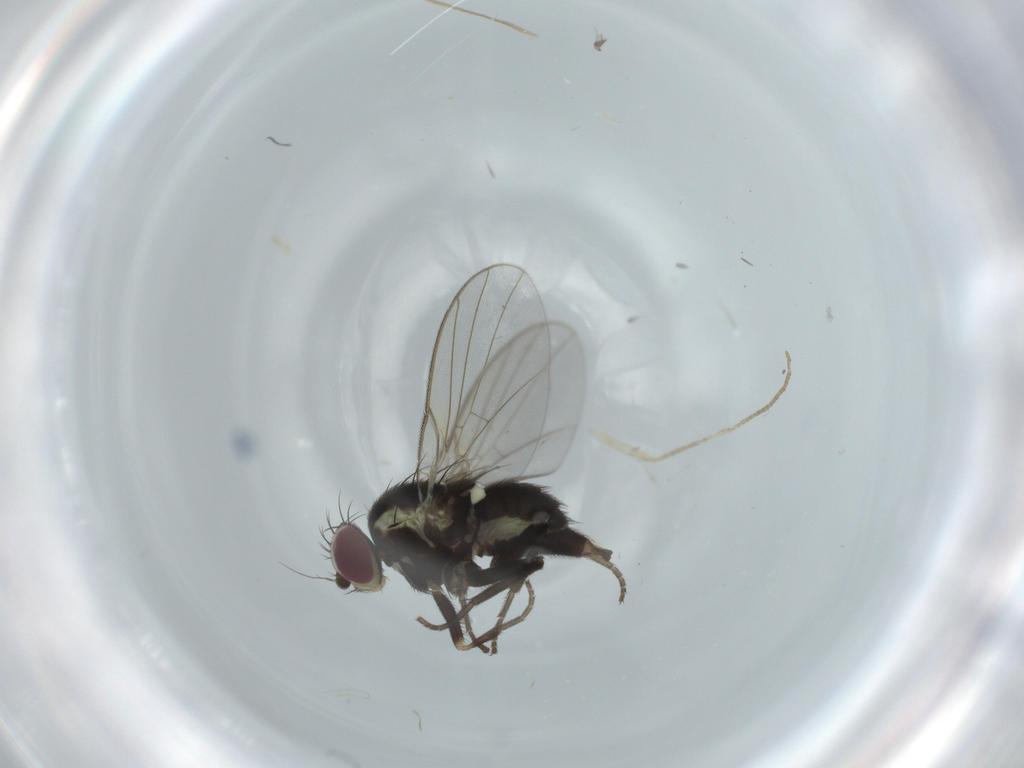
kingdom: Animalia
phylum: Arthropoda
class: Insecta
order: Diptera
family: Agromyzidae
